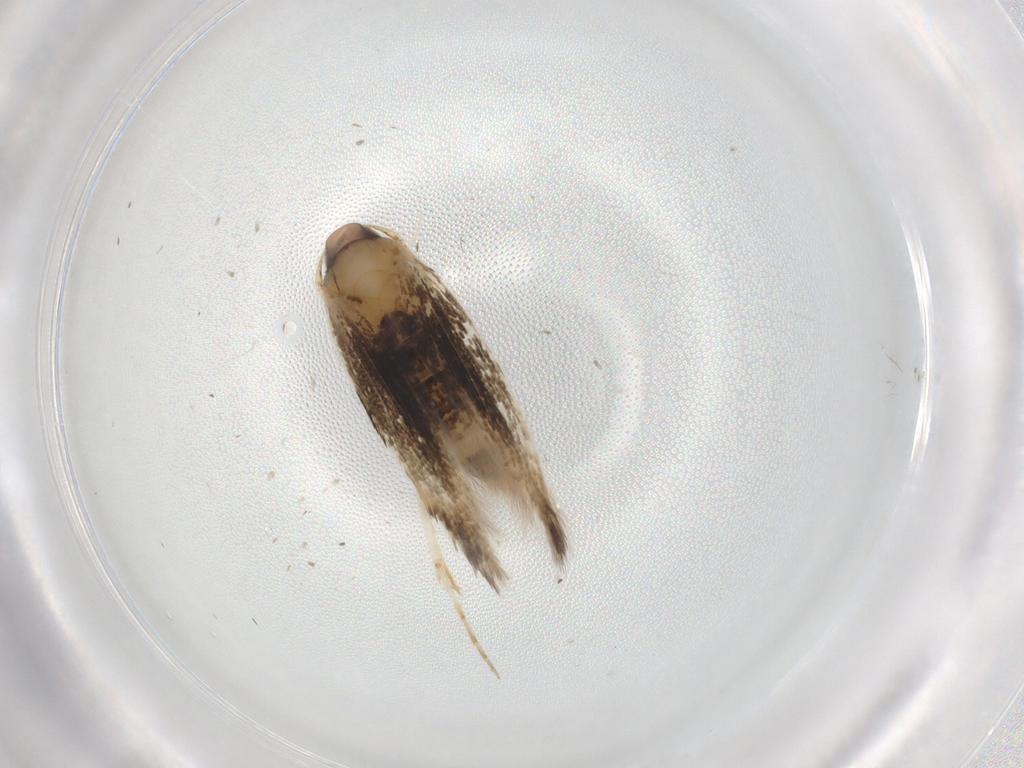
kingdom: Animalia
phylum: Arthropoda
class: Insecta
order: Lepidoptera
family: Cosmopterigidae
